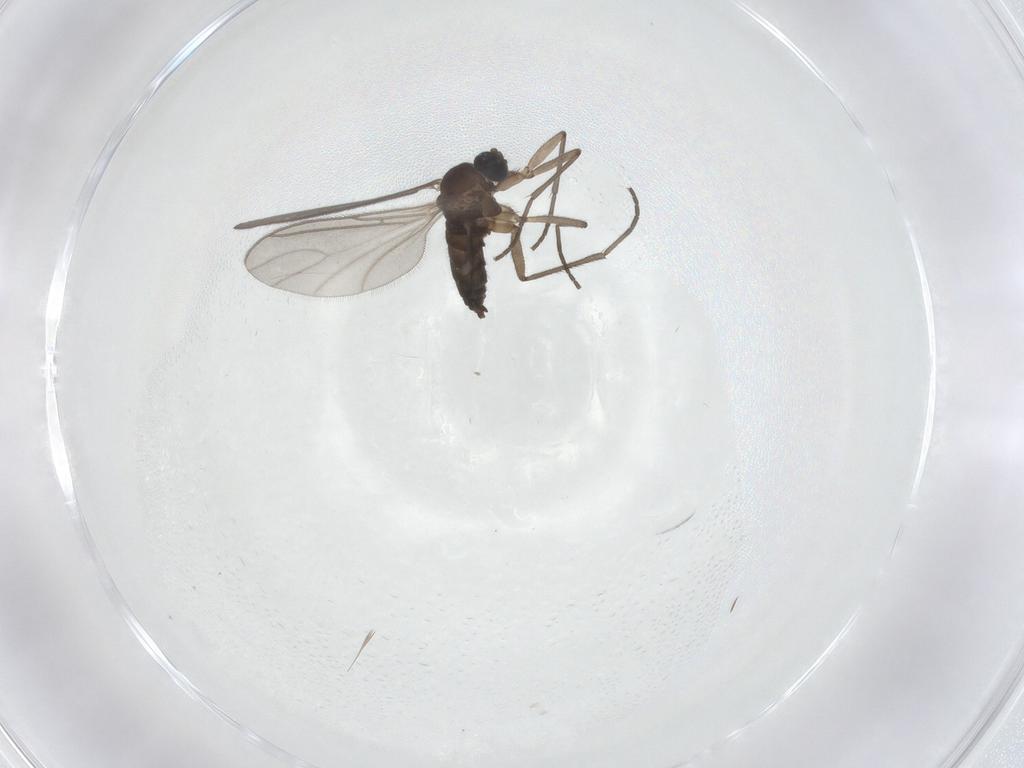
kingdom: Animalia
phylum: Arthropoda
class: Insecta
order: Diptera
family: Sciaridae
